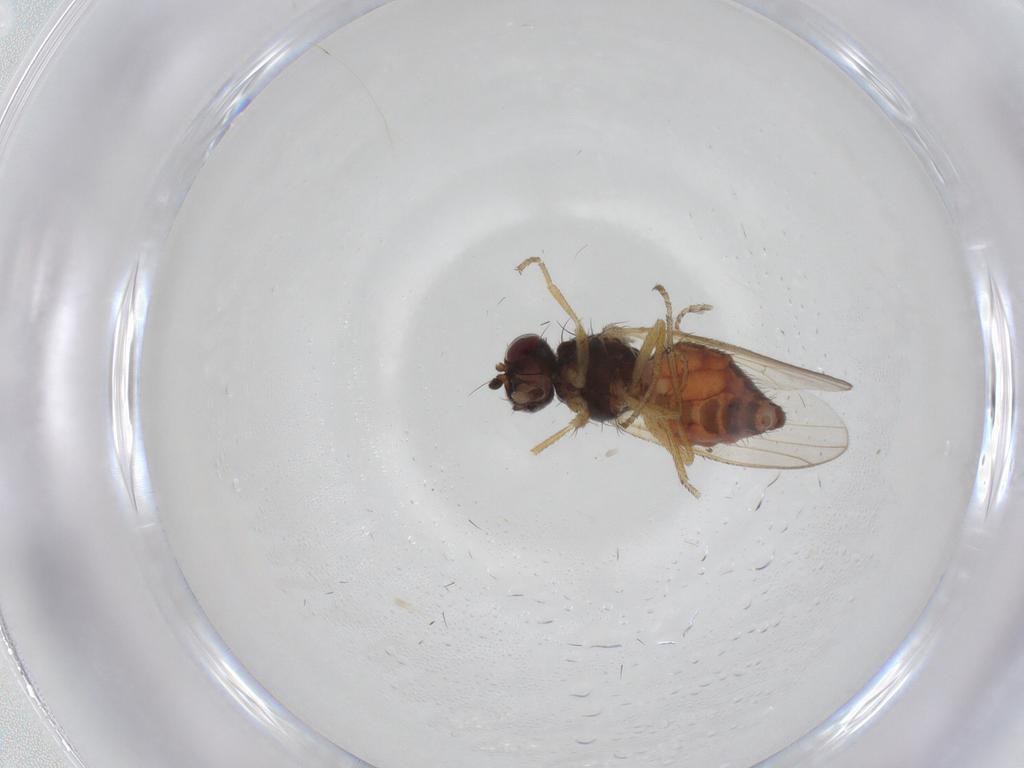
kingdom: Animalia
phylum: Arthropoda
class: Insecta
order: Diptera
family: Heleomyzidae
